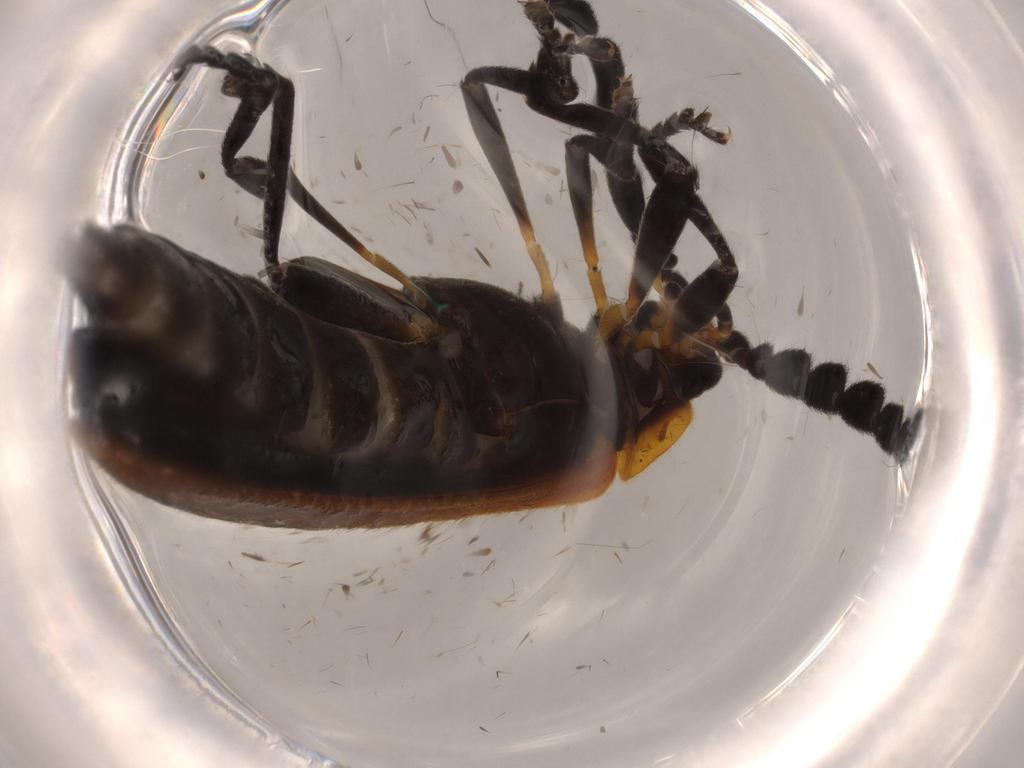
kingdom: Animalia
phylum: Arthropoda
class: Insecta
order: Coleoptera
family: Lycidae
